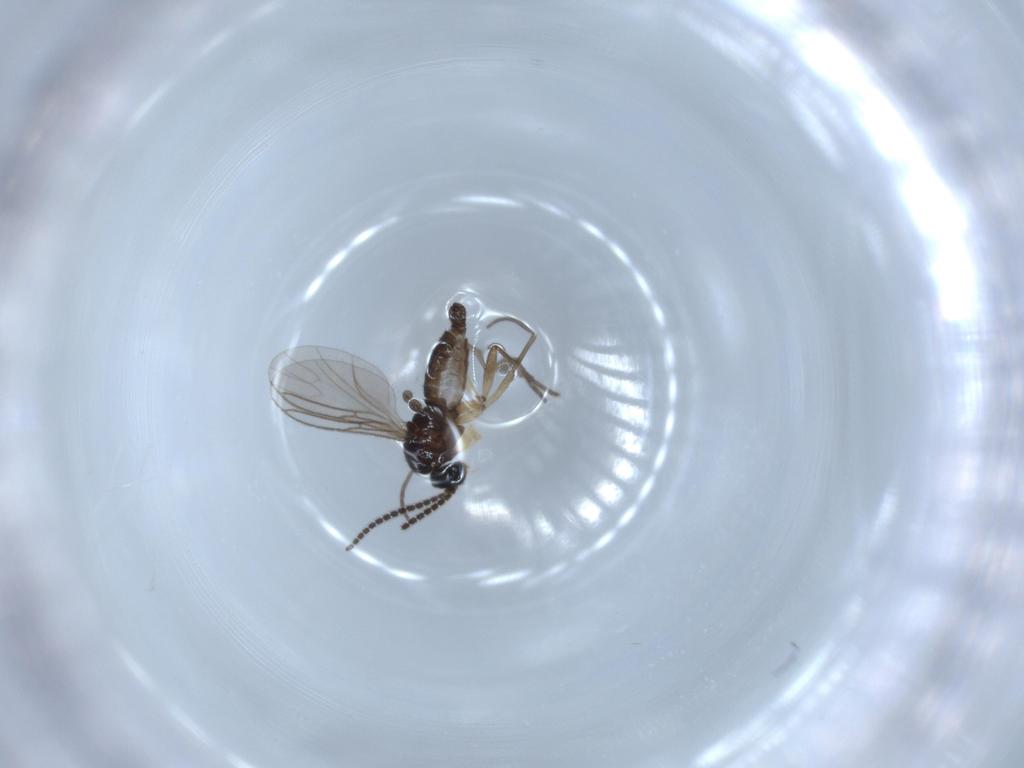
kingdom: Animalia
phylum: Arthropoda
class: Insecta
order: Diptera
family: Sciaridae
